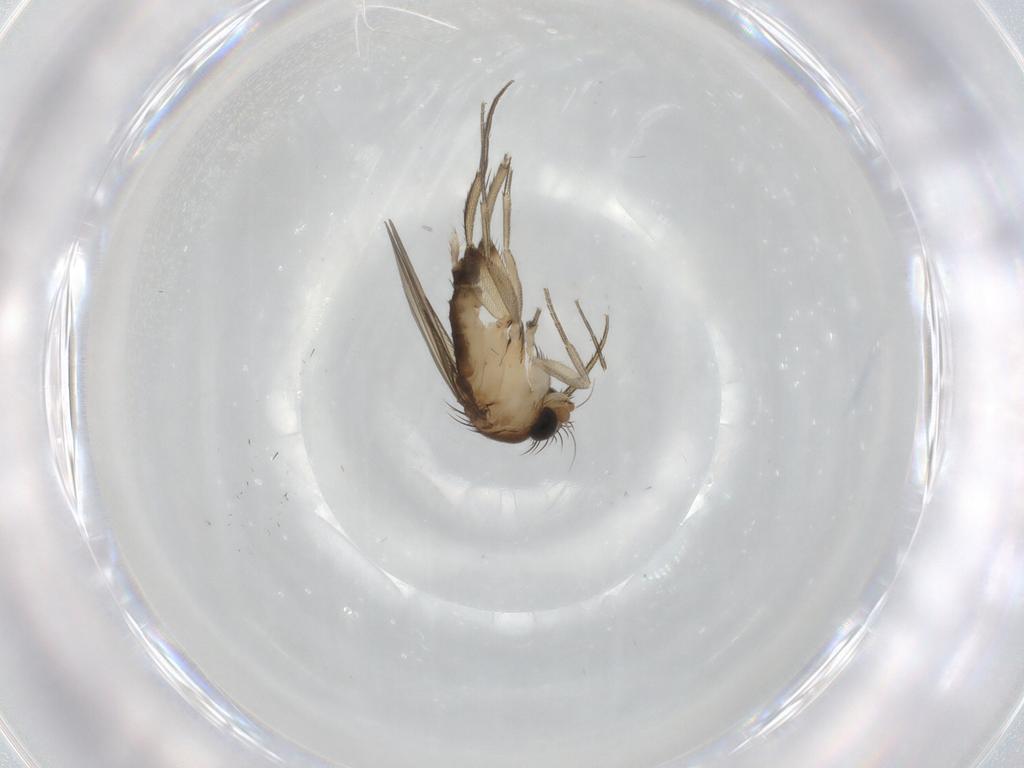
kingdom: Animalia
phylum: Arthropoda
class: Insecta
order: Diptera
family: Phoridae
